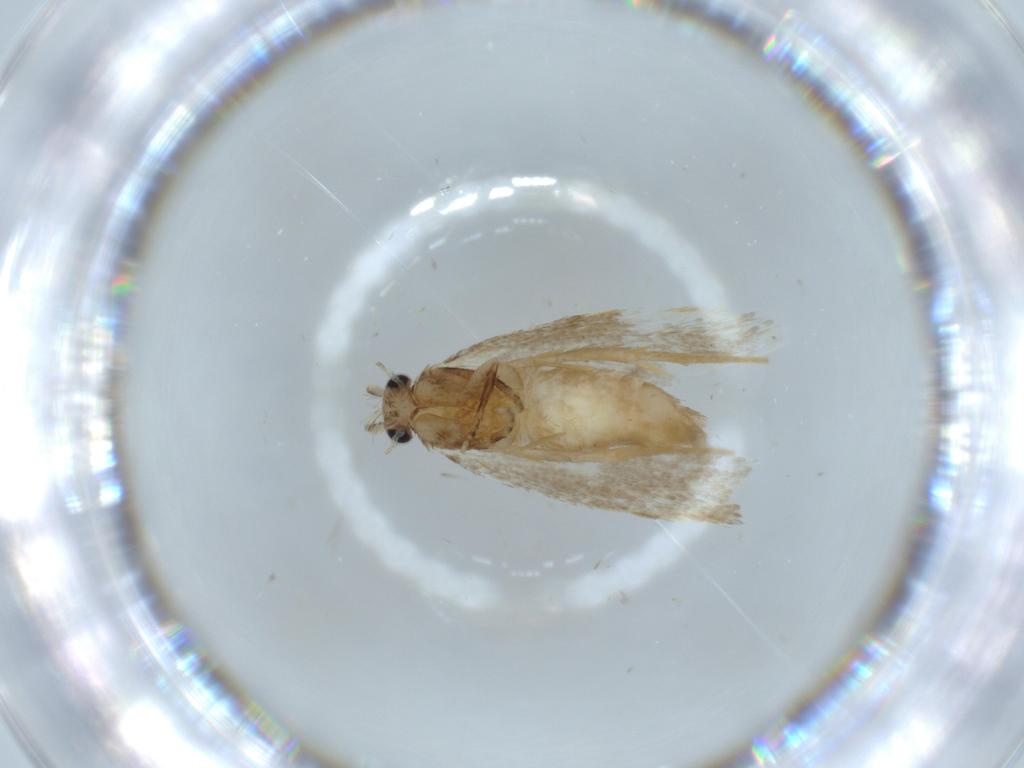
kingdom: Animalia
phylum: Arthropoda
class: Insecta
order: Lepidoptera
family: Tineidae
